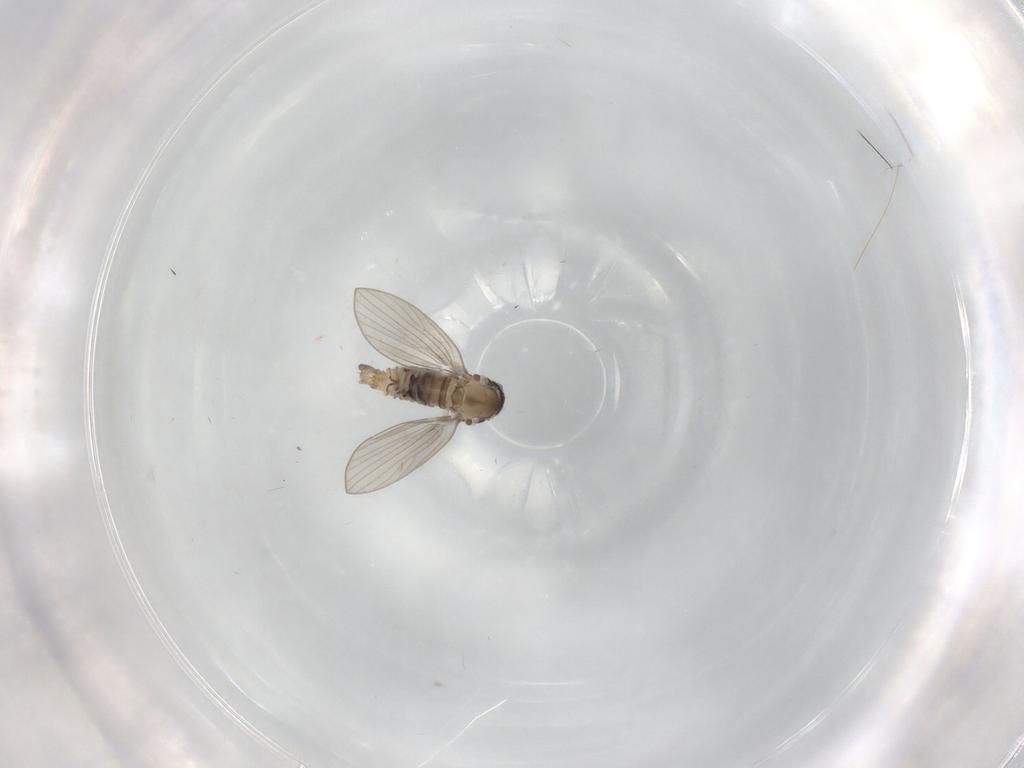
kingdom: Animalia
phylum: Arthropoda
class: Insecta
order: Diptera
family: Psychodidae
